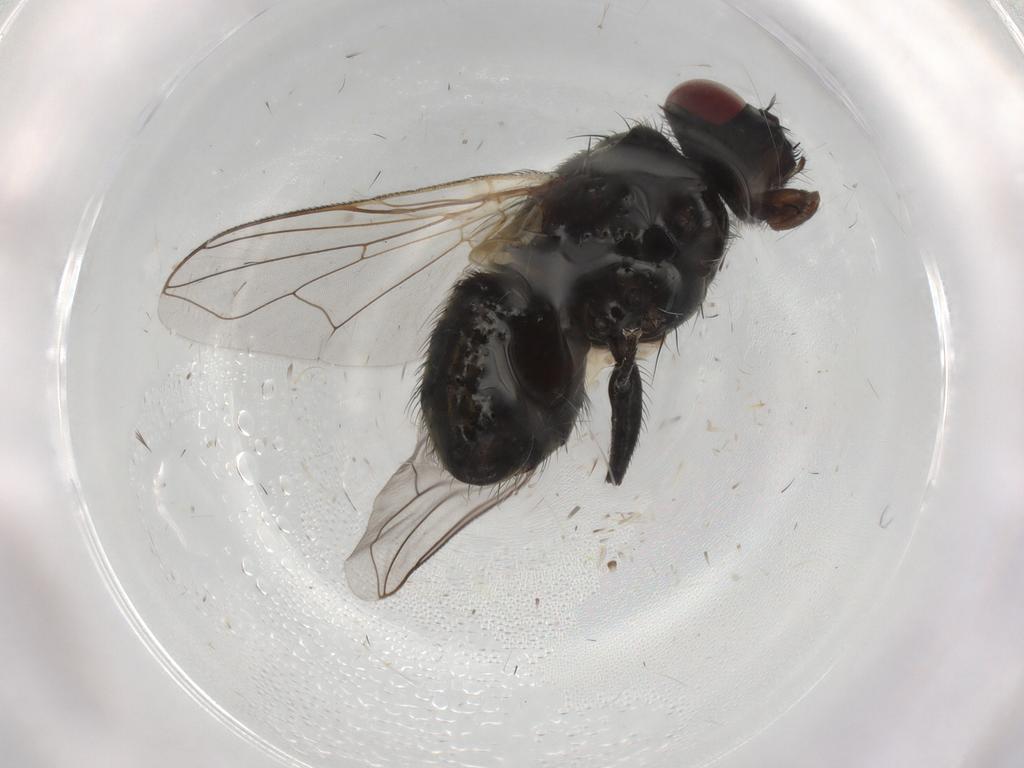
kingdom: Animalia
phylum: Arthropoda
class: Insecta
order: Diptera
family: Muscidae
